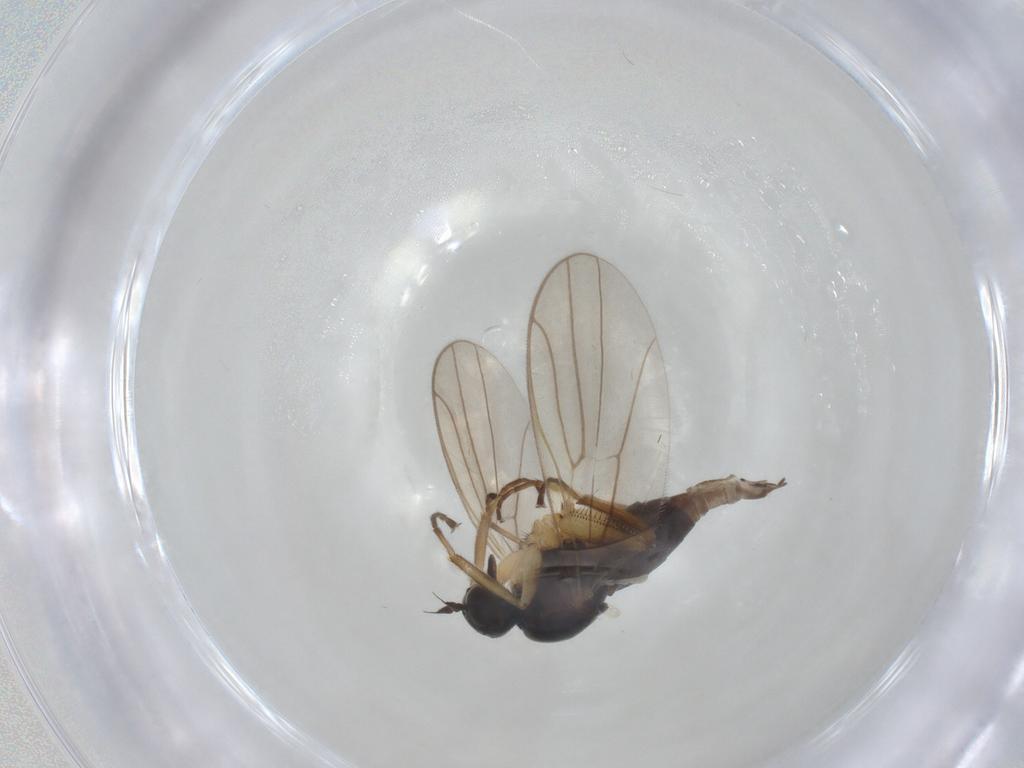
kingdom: Animalia
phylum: Arthropoda
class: Insecta
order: Diptera
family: Hybotidae
